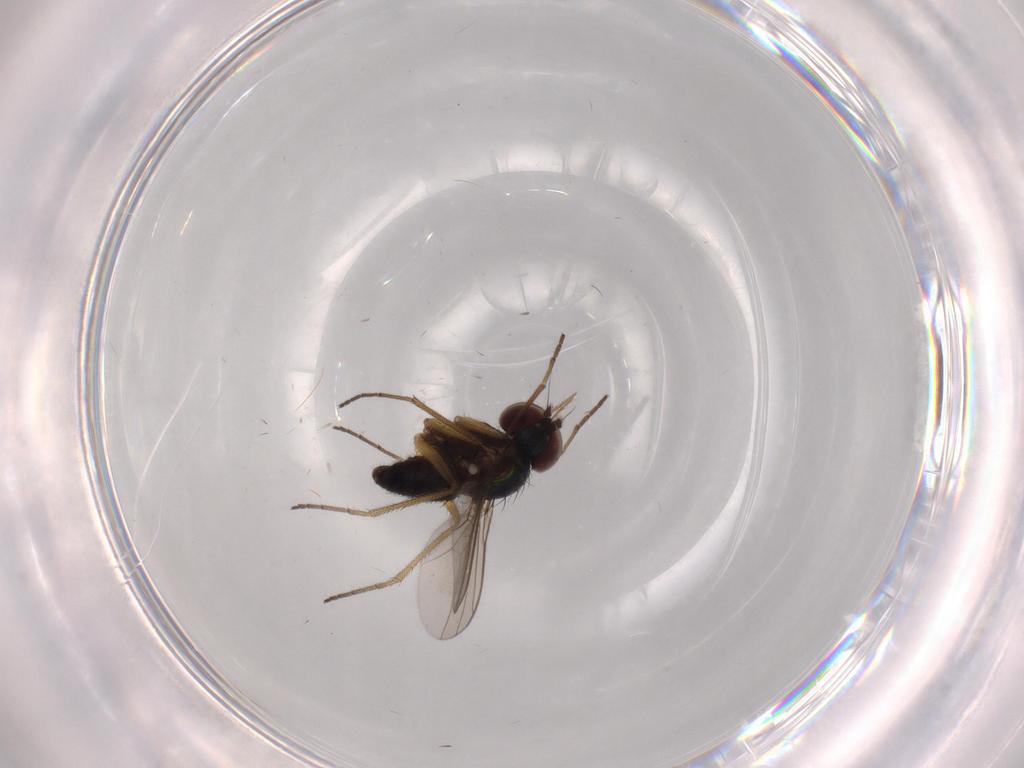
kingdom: Animalia
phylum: Arthropoda
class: Insecta
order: Diptera
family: Dolichopodidae
